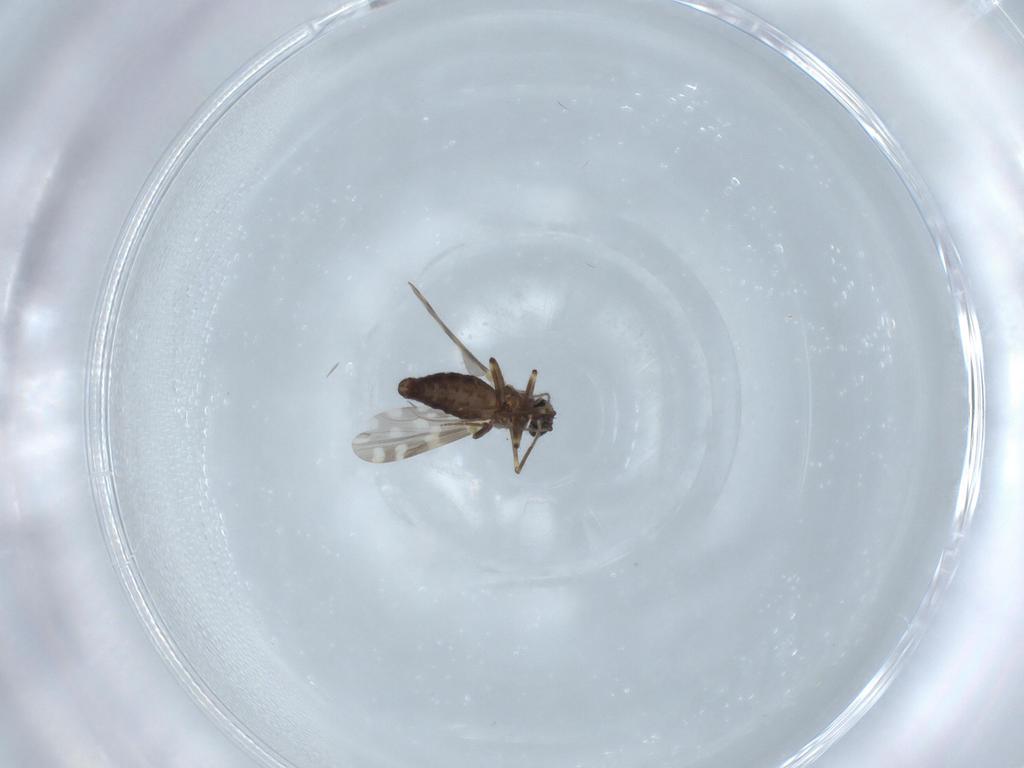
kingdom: Animalia
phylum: Arthropoda
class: Insecta
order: Diptera
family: Ceratopogonidae
